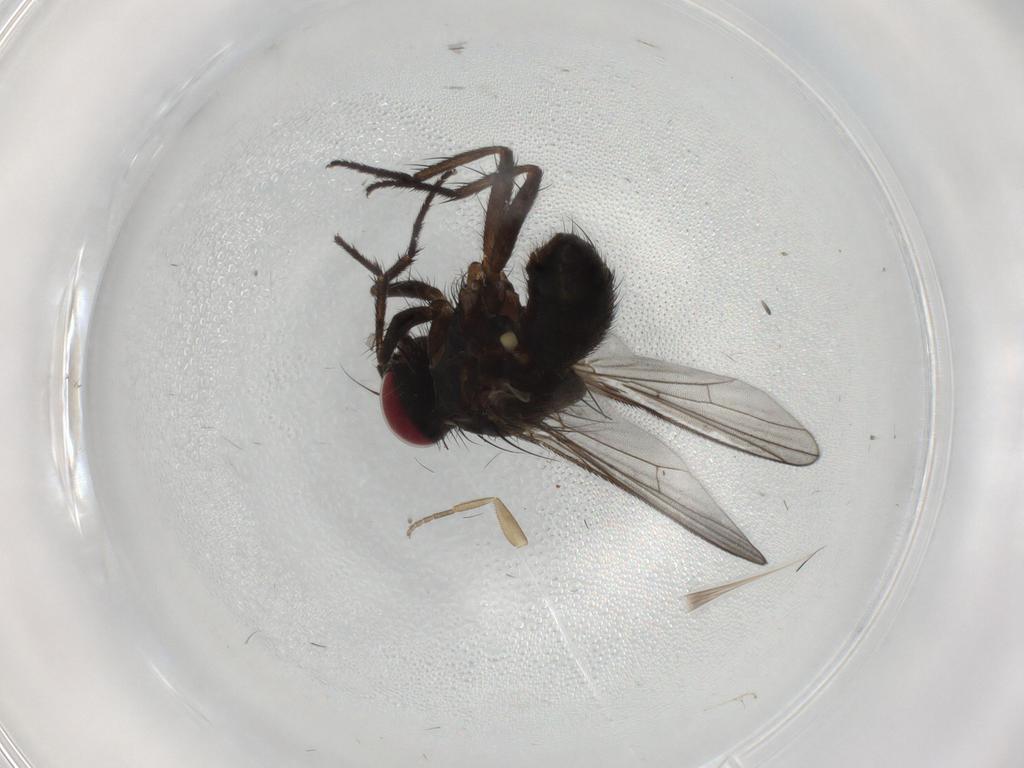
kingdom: Animalia
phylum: Arthropoda
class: Insecta
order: Diptera
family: Muscidae
